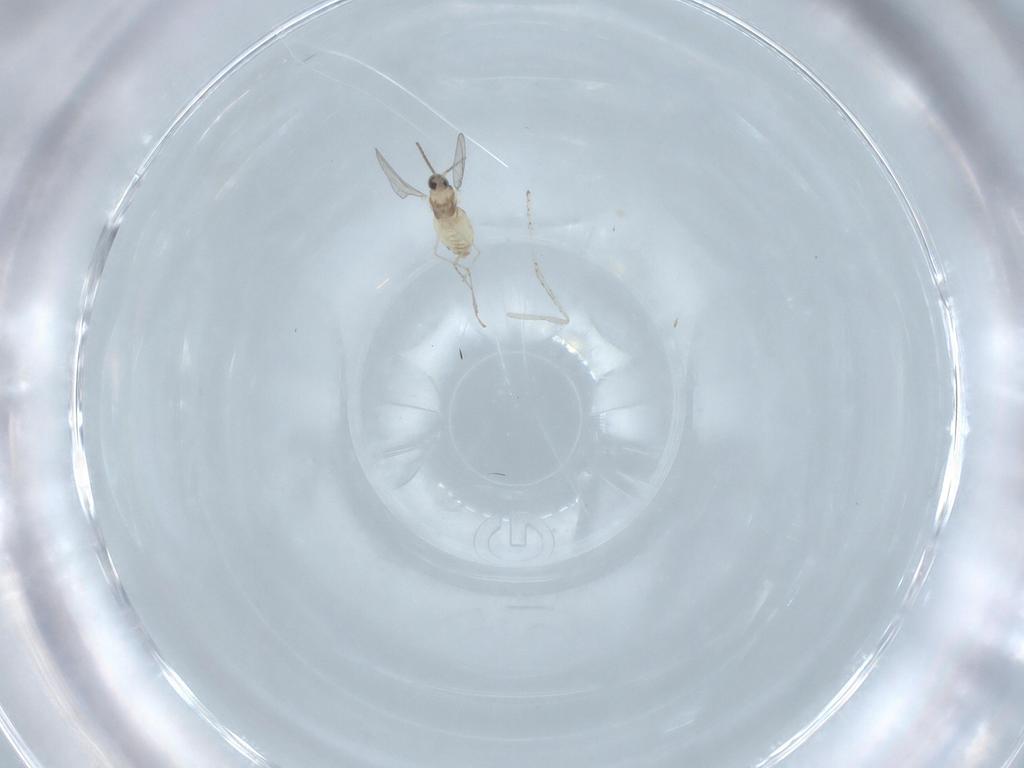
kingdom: Animalia
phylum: Arthropoda
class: Insecta
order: Diptera
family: Cecidomyiidae
